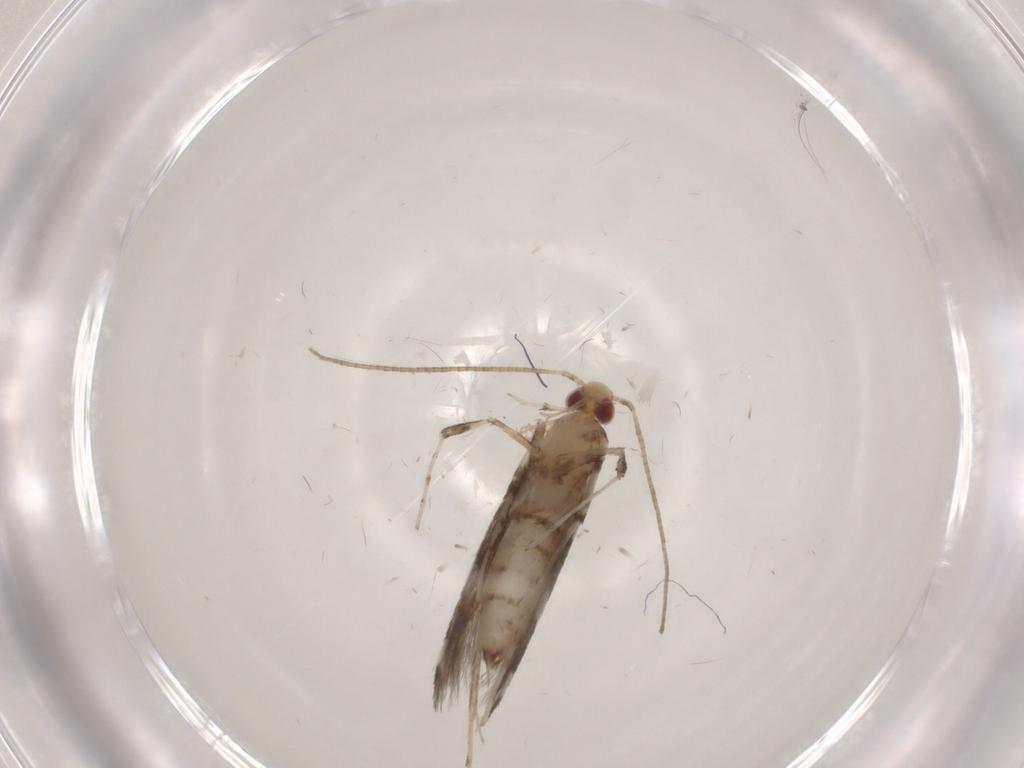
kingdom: Animalia
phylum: Arthropoda
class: Insecta
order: Lepidoptera
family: Gracillariidae
